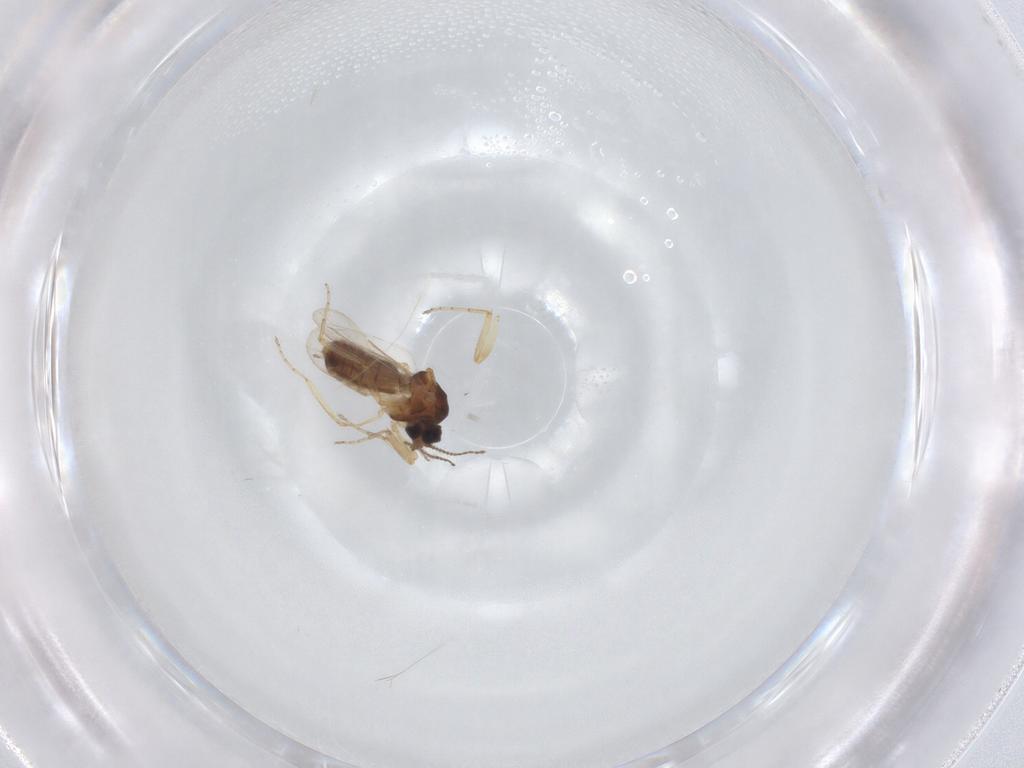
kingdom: Animalia
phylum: Arthropoda
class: Insecta
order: Diptera
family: Ceratopogonidae
